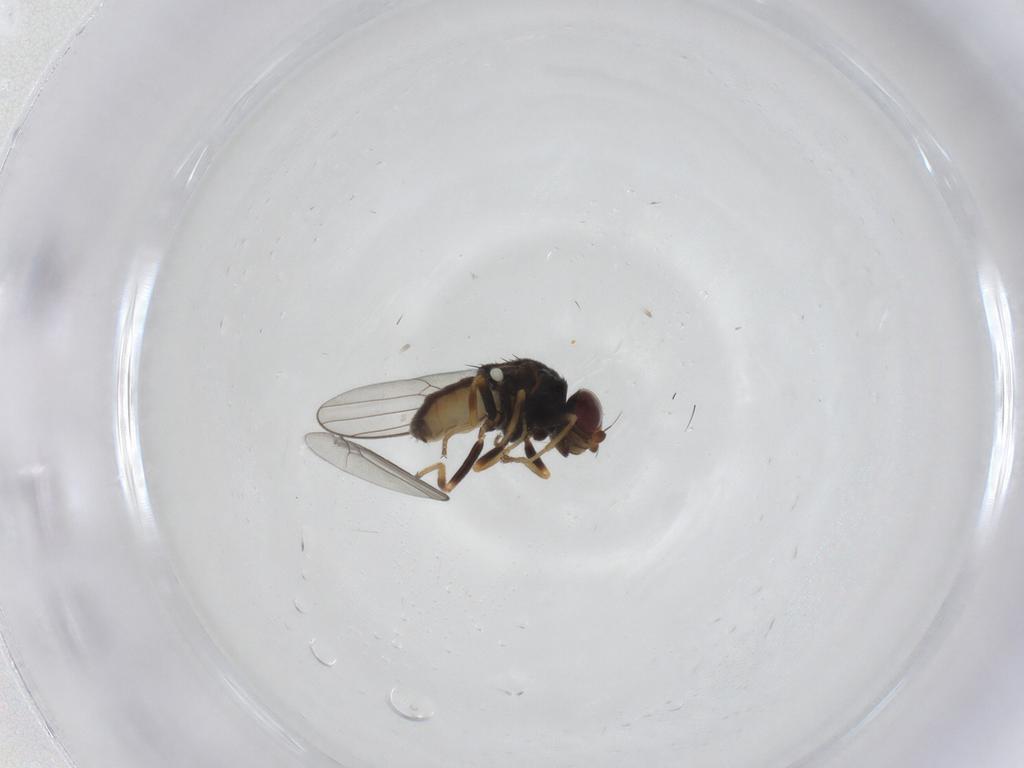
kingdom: Animalia
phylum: Arthropoda
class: Insecta
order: Diptera
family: Chloropidae
